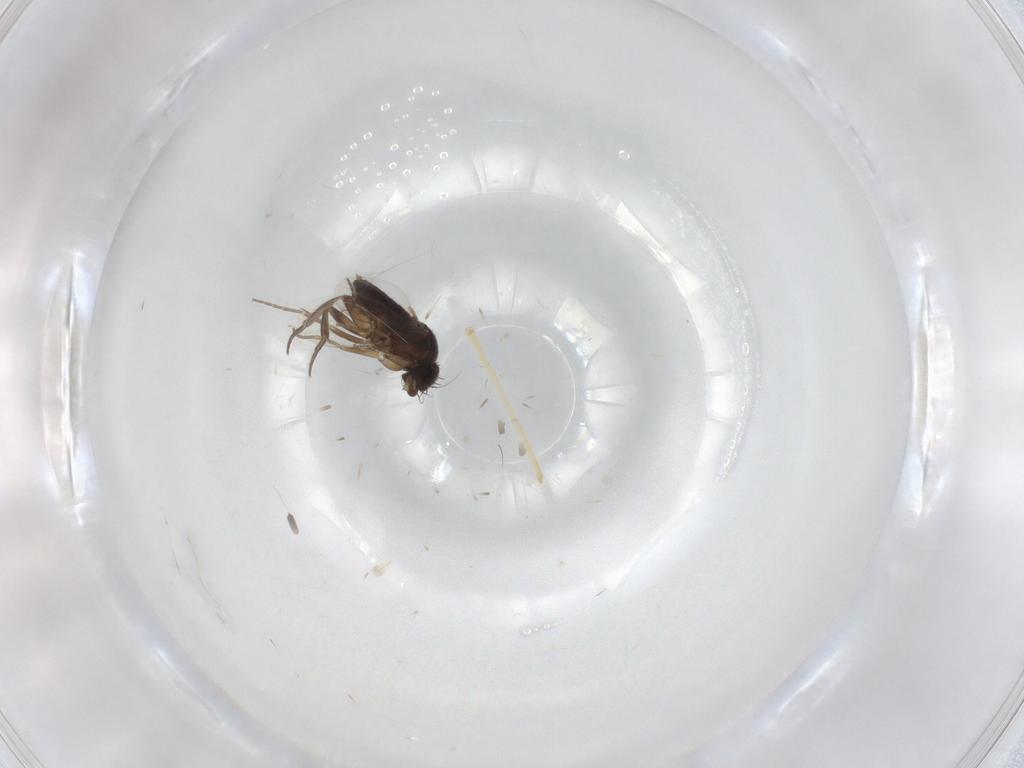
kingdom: Animalia
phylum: Arthropoda
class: Insecta
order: Diptera
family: Phoridae
